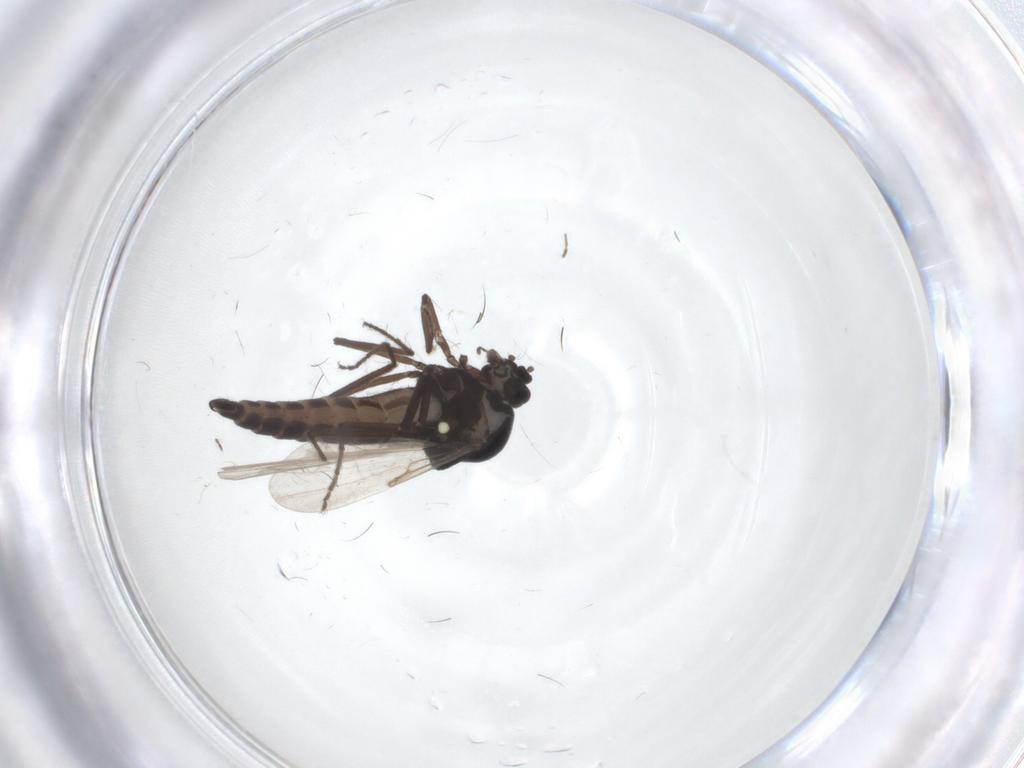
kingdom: Animalia
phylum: Arthropoda
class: Insecta
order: Diptera
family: Ceratopogonidae
